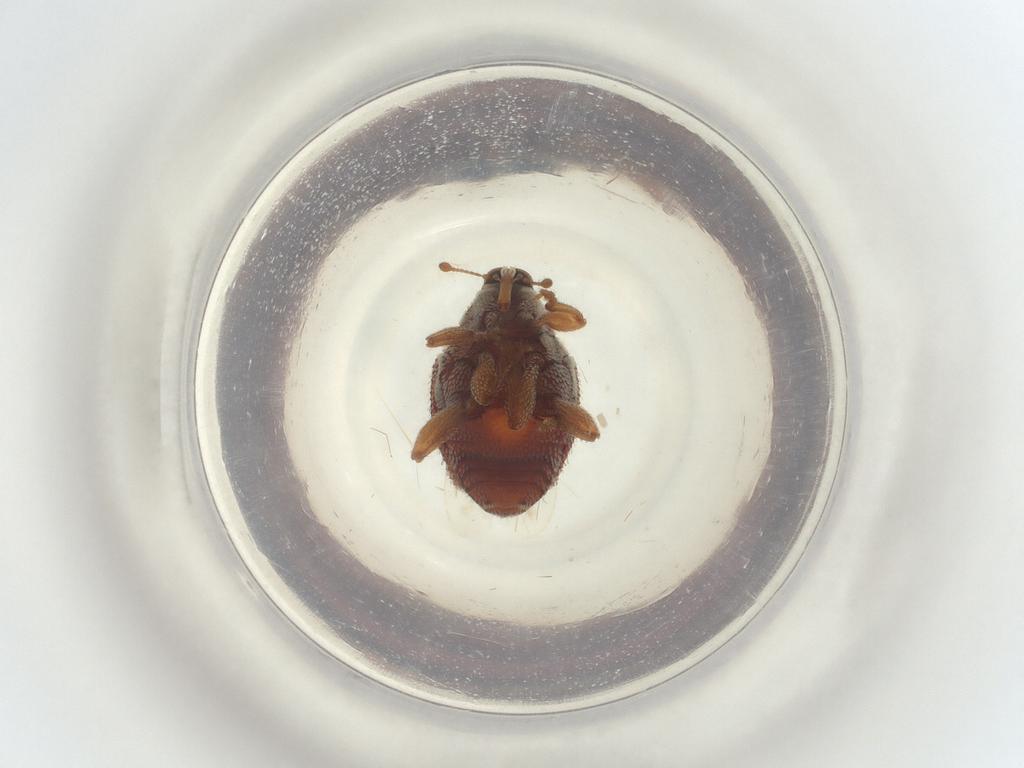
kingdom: Animalia
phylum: Arthropoda
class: Insecta
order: Coleoptera
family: Curculionidae
